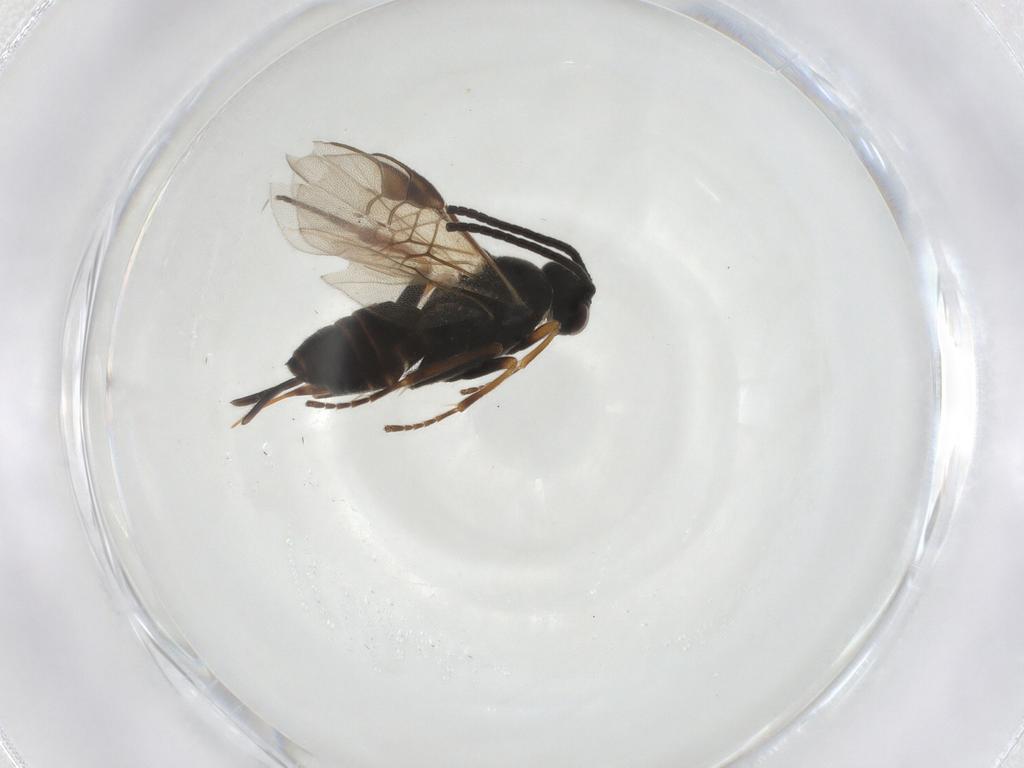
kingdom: Animalia
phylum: Arthropoda
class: Insecta
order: Hymenoptera
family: Braconidae
